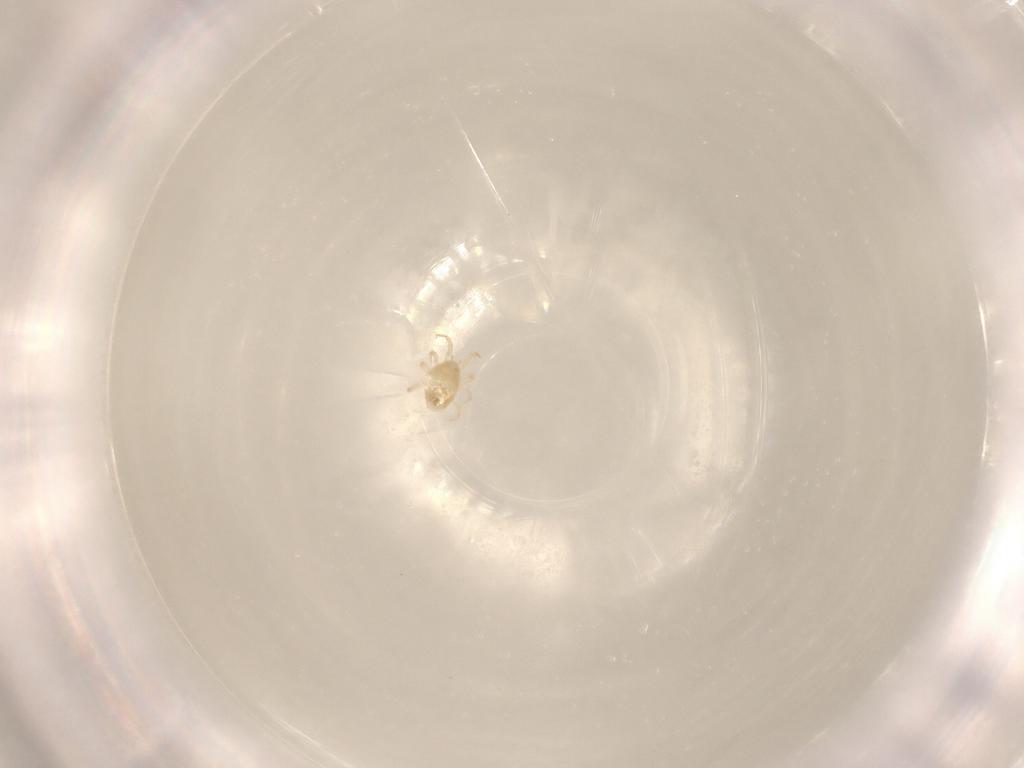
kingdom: Animalia
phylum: Arthropoda
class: Arachnida
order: Mesostigmata
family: Phytoseiidae
